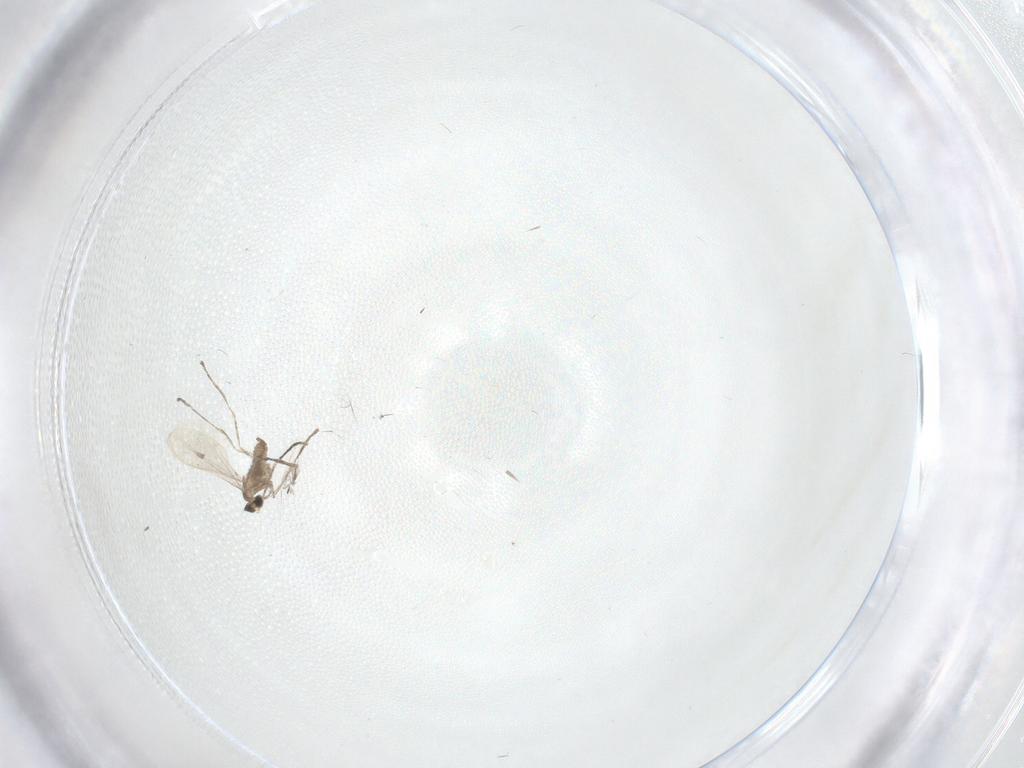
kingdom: Animalia
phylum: Arthropoda
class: Insecta
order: Diptera
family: Cecidomyiidae
